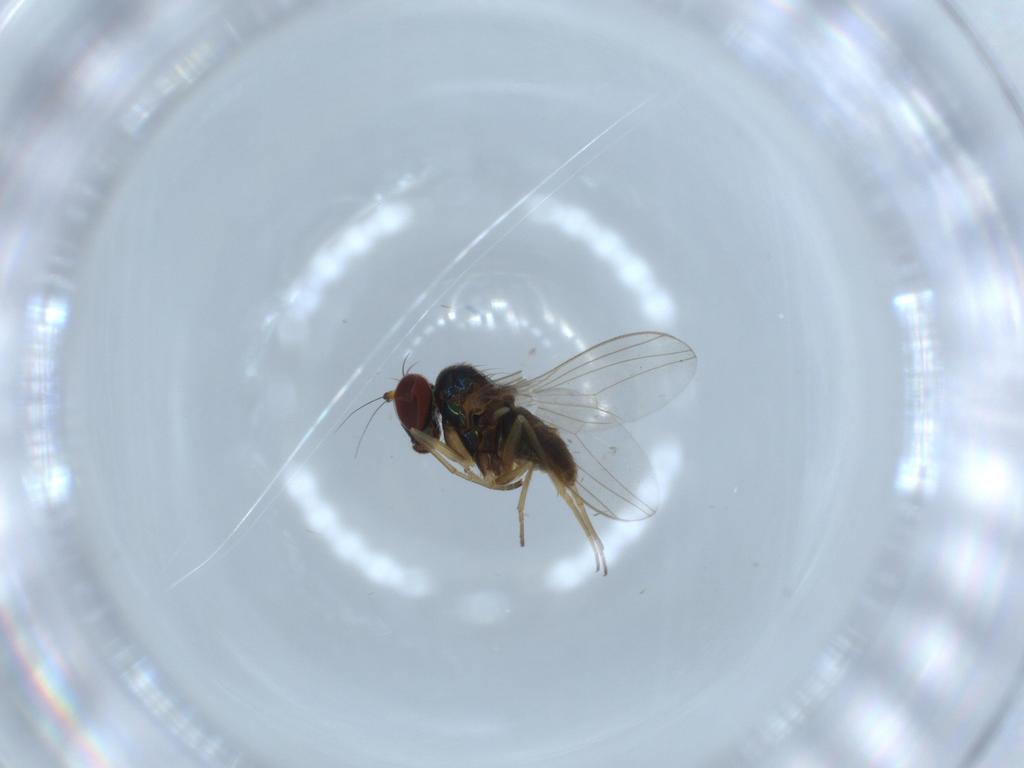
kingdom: Animalia
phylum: Arthropoda
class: Insecta
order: Diptera
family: Dolichopodidae
